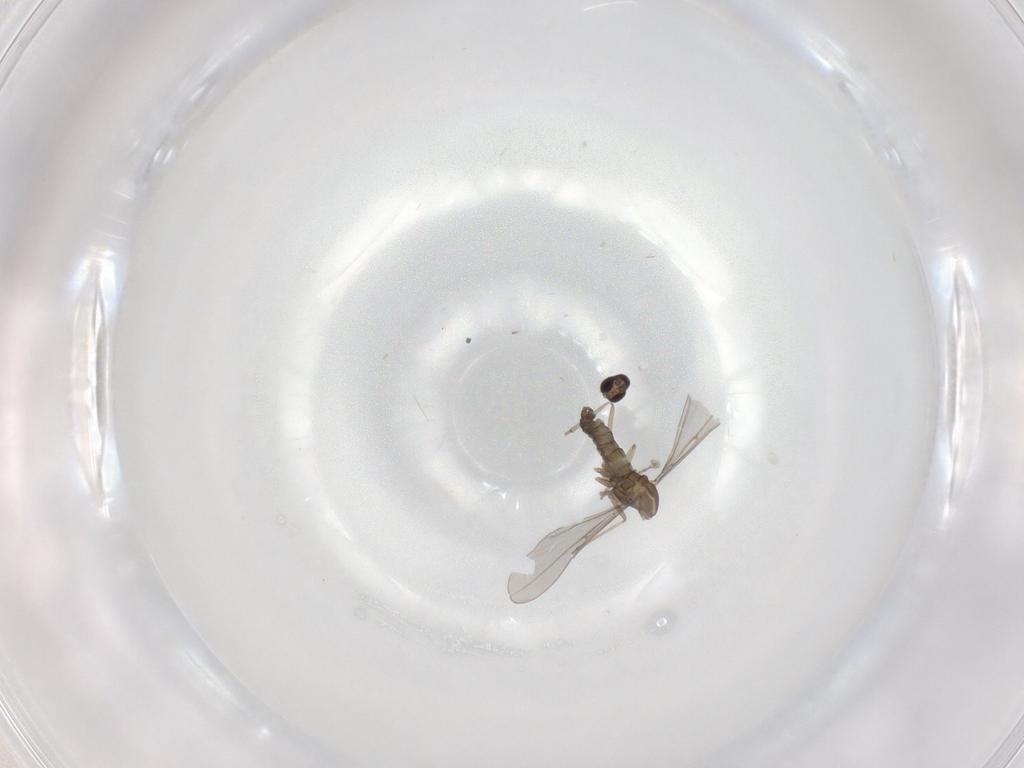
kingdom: Animalia
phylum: Arthropoda
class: Insecta
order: Diptera
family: Cecidomyiidae
